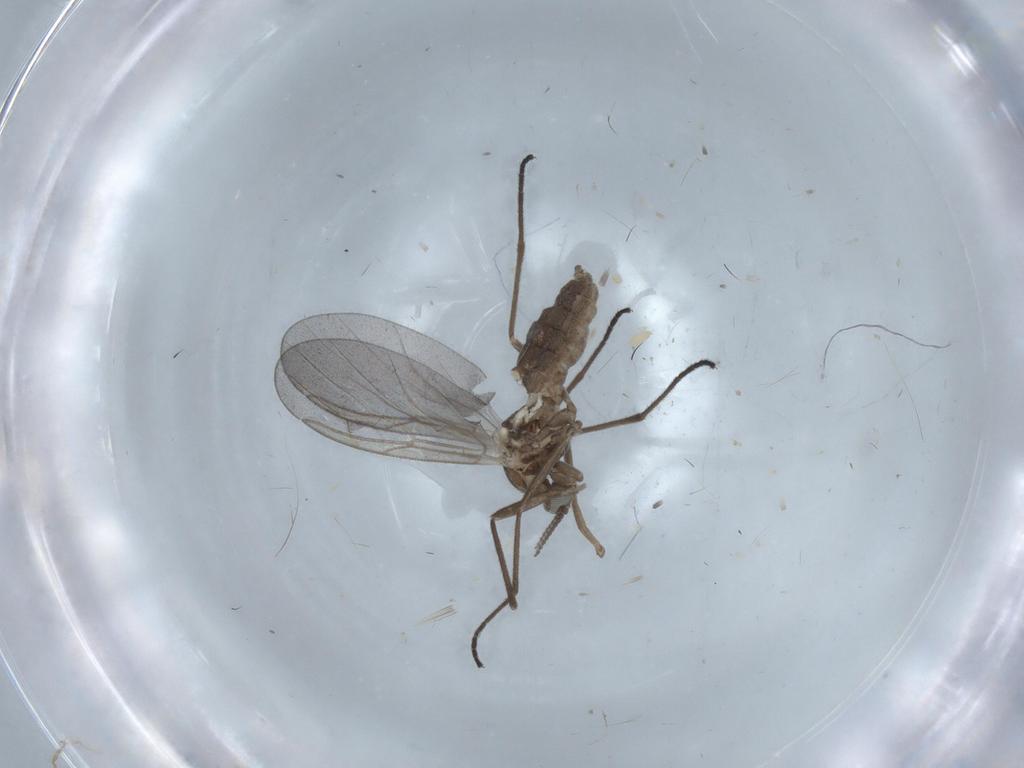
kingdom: Animalia
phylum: Arthropoda
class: Insecta
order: Diptera
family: Cecidomyiidae
